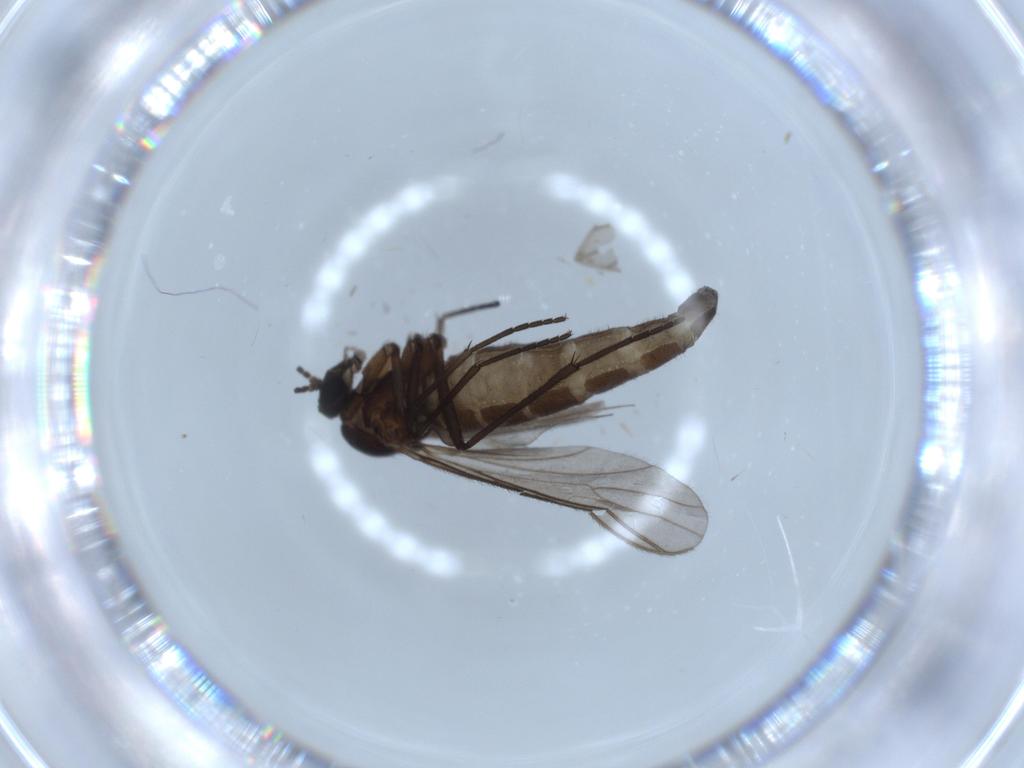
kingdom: Animalia
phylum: Arthropoda
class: Insecta
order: Diptera
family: Sciaridae
